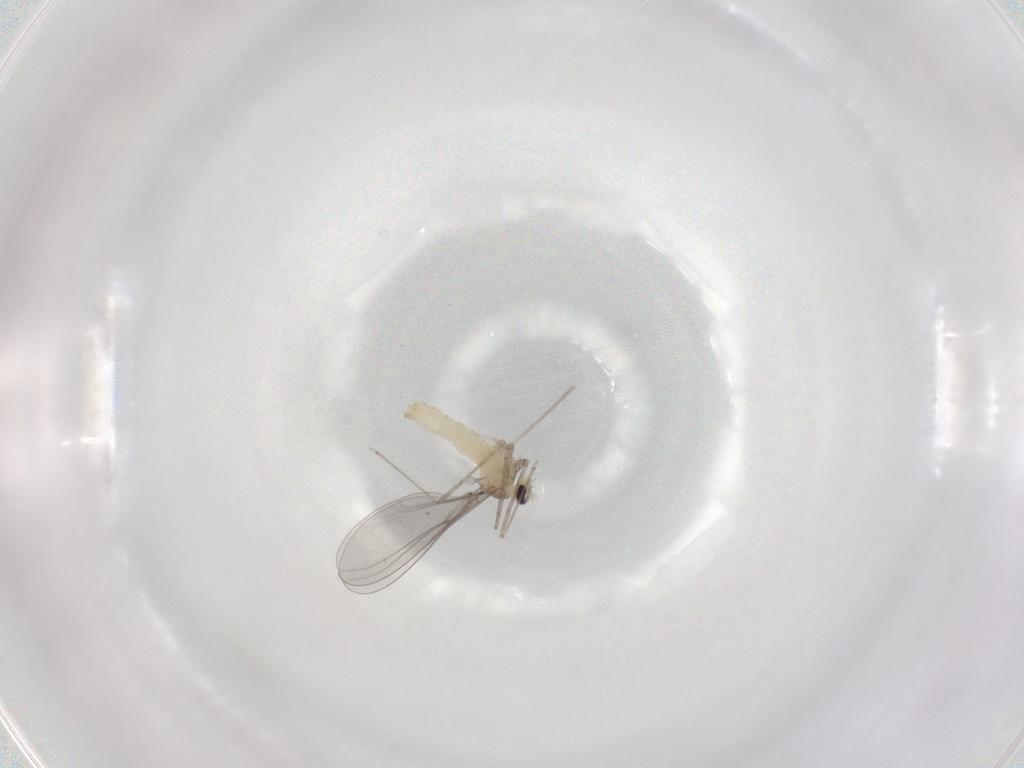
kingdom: Animalia
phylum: Arthropoda
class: Insecta
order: Diptera
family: Cecidomyiidae
